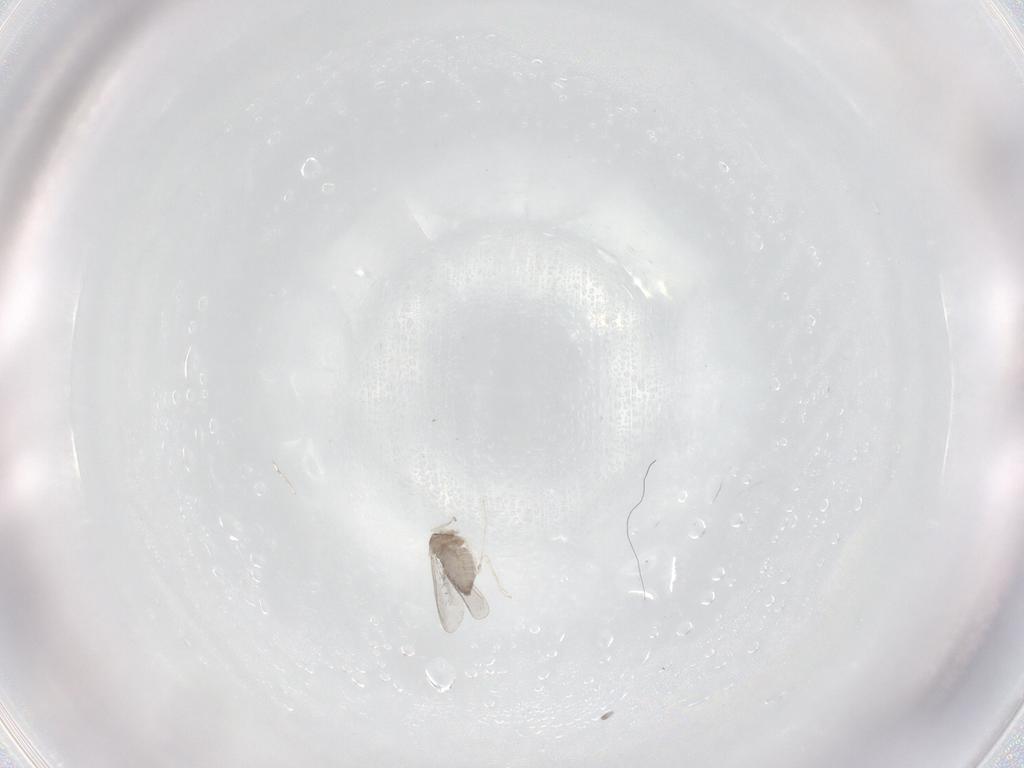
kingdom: Animalia
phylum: Arthropoda
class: Insecta
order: Diptera
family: Cecidomyiidae
